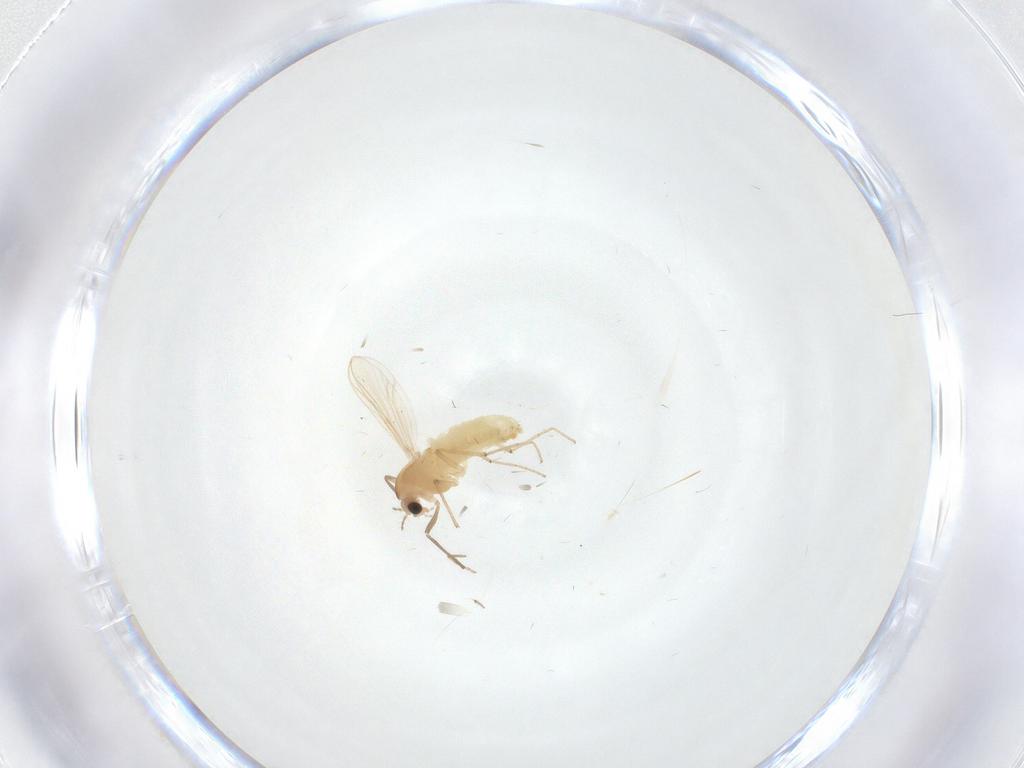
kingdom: Animalia
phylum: Arthropoda
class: Insecta
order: Diptera
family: Chironomidae
